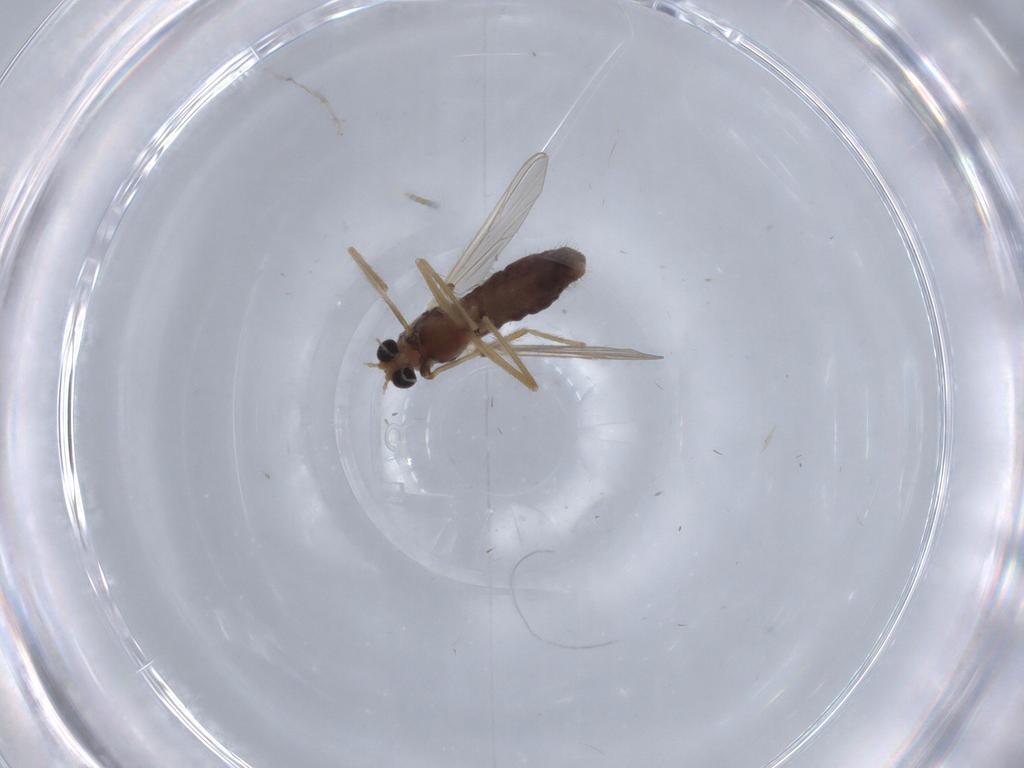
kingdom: Animalia
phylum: Arthropoda
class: Insecta
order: Diptera
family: Chironomidae
